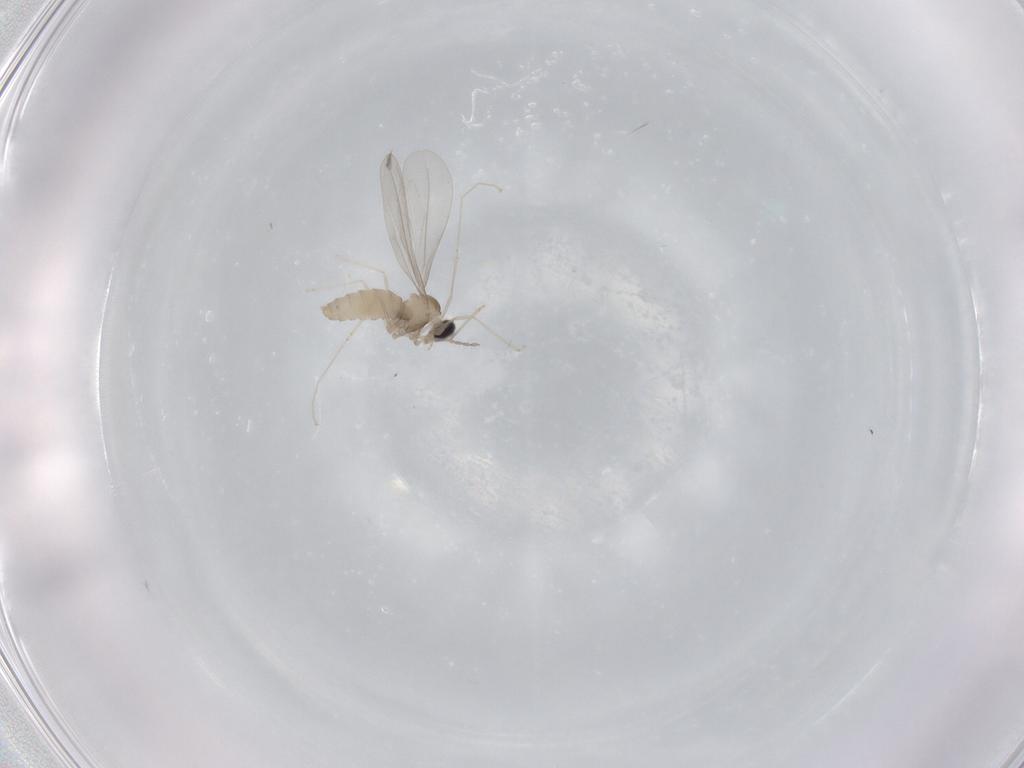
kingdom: Animalia
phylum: Arthropoda
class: Insecta
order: Diptera
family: Cecidomyiidae
